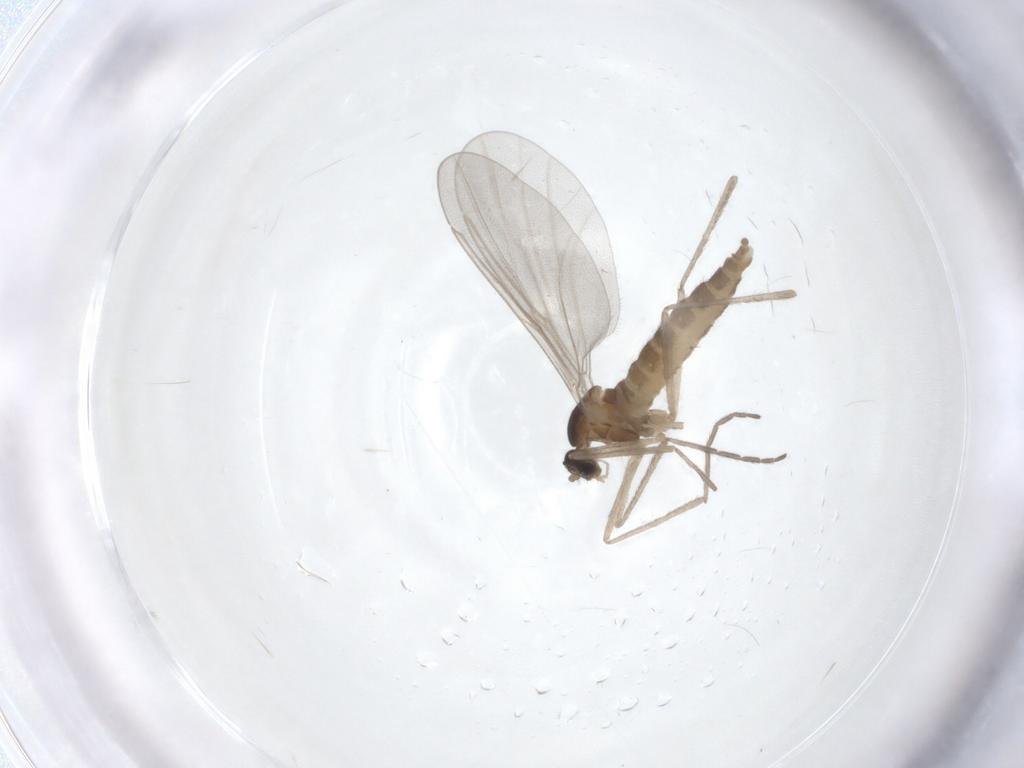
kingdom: Animalia
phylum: Arthropoda
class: Insecta
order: Diptera
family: Cecidomyiidae
